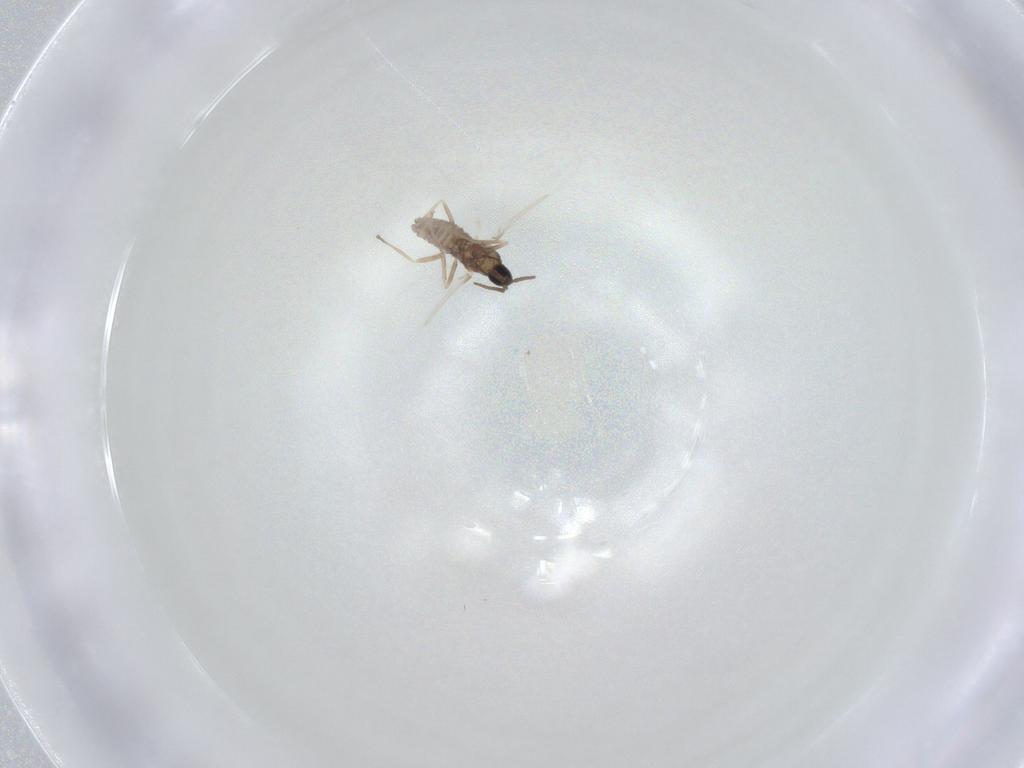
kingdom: Animalia
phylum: Arthropoda
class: Insecta
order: Diptera
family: Cecidomyiidae
